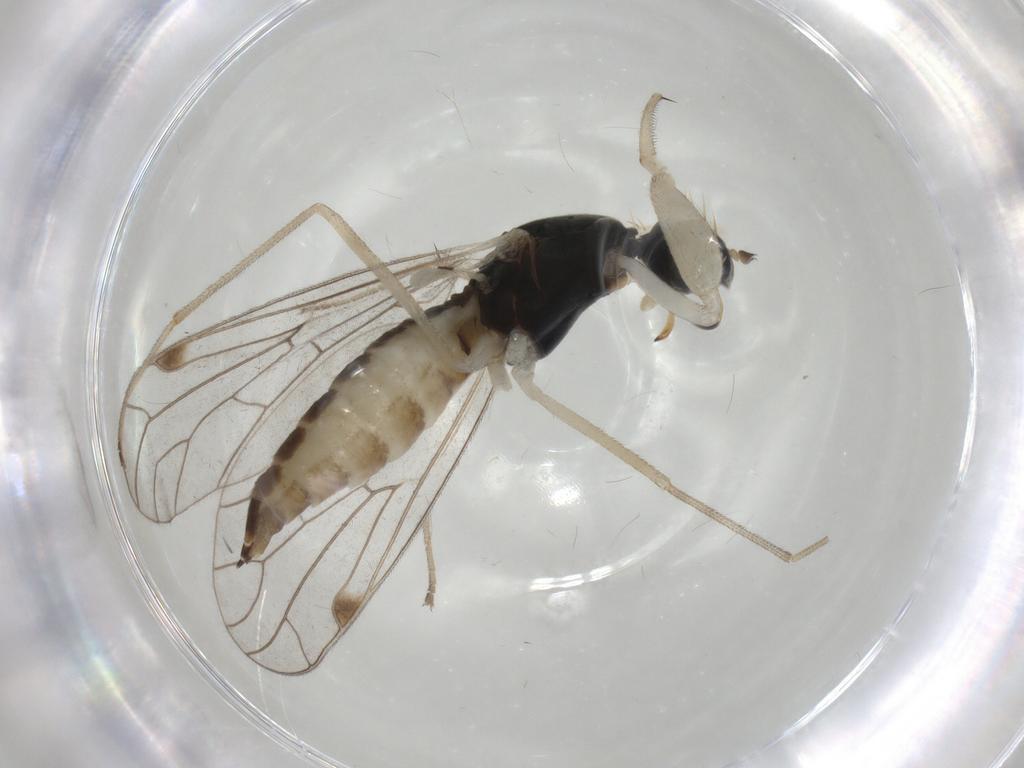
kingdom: Animalia
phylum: Arthropoda
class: Insecta
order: Diptera
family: Empididae
